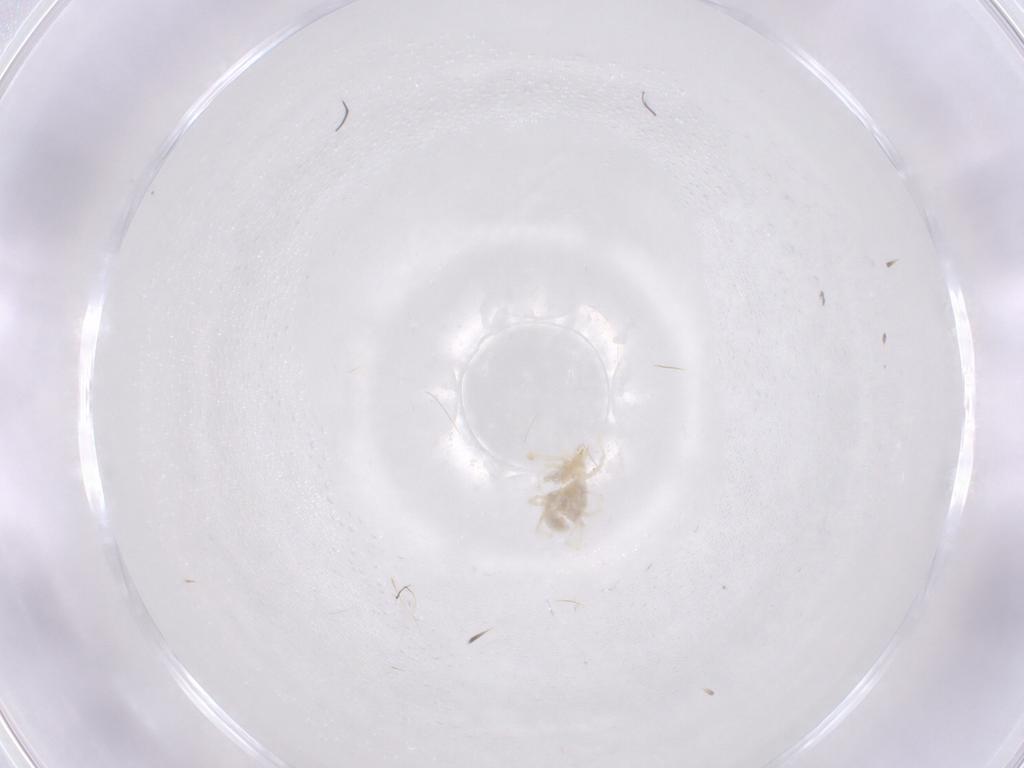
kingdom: Animalia
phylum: Arthropoda
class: Arachnida
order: Trombidiformes
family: Eupodidae
